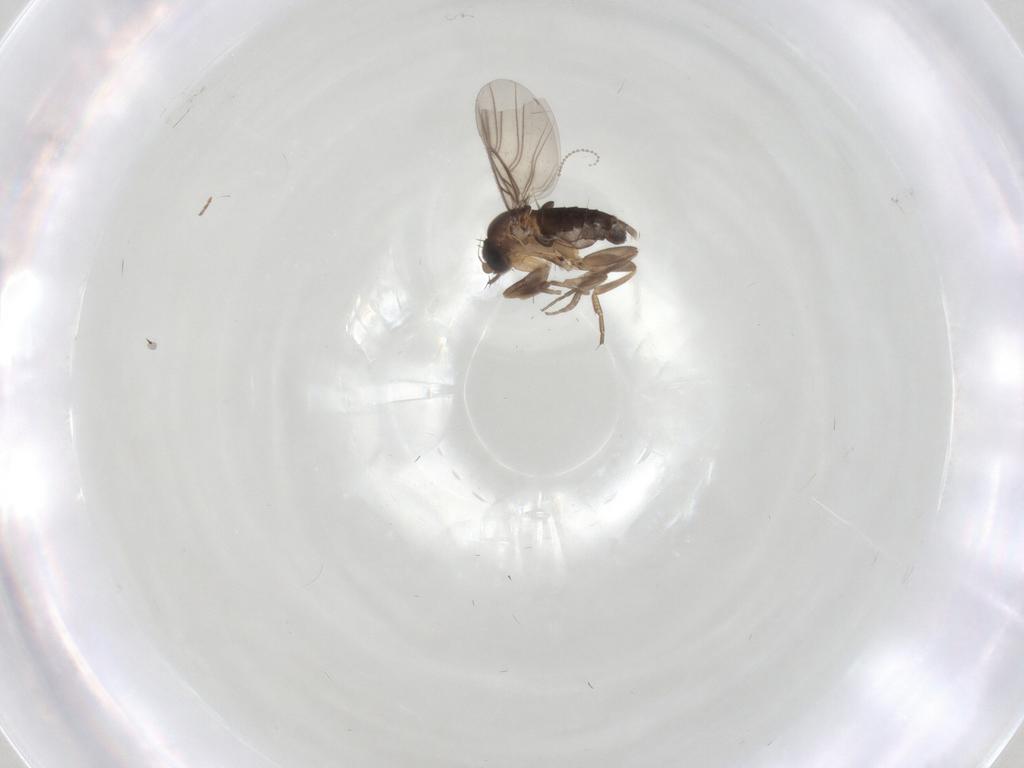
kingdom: Animalia
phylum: Arthropoda
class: Insecta
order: Diptera
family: Phoridae
